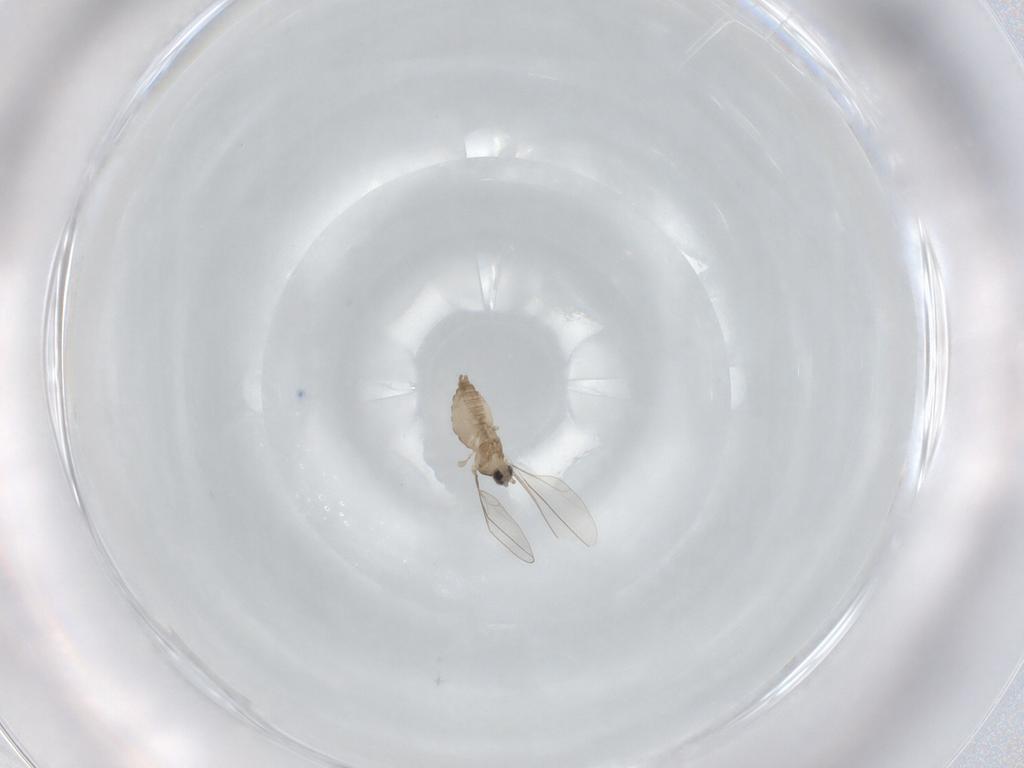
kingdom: Animalia
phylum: Arthropoda
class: Insecta
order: Diptera
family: Cecidomyiidae
